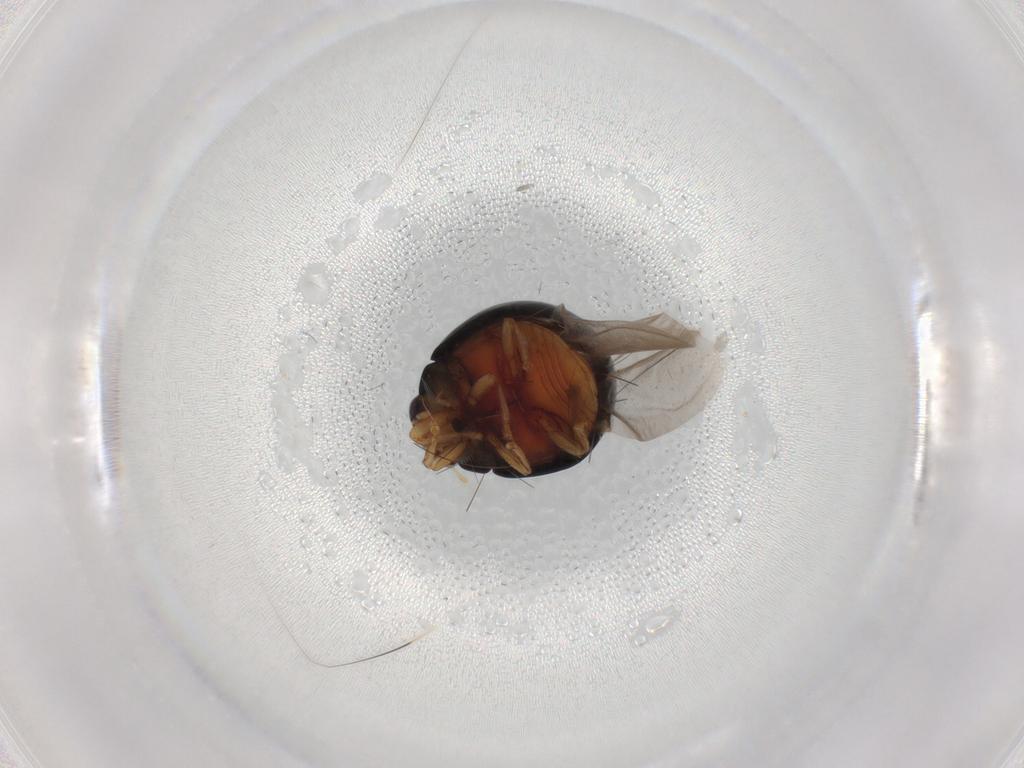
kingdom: Animalia
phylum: Arthropoda
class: Insecta
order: Coleoptera
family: Coccinellidae
